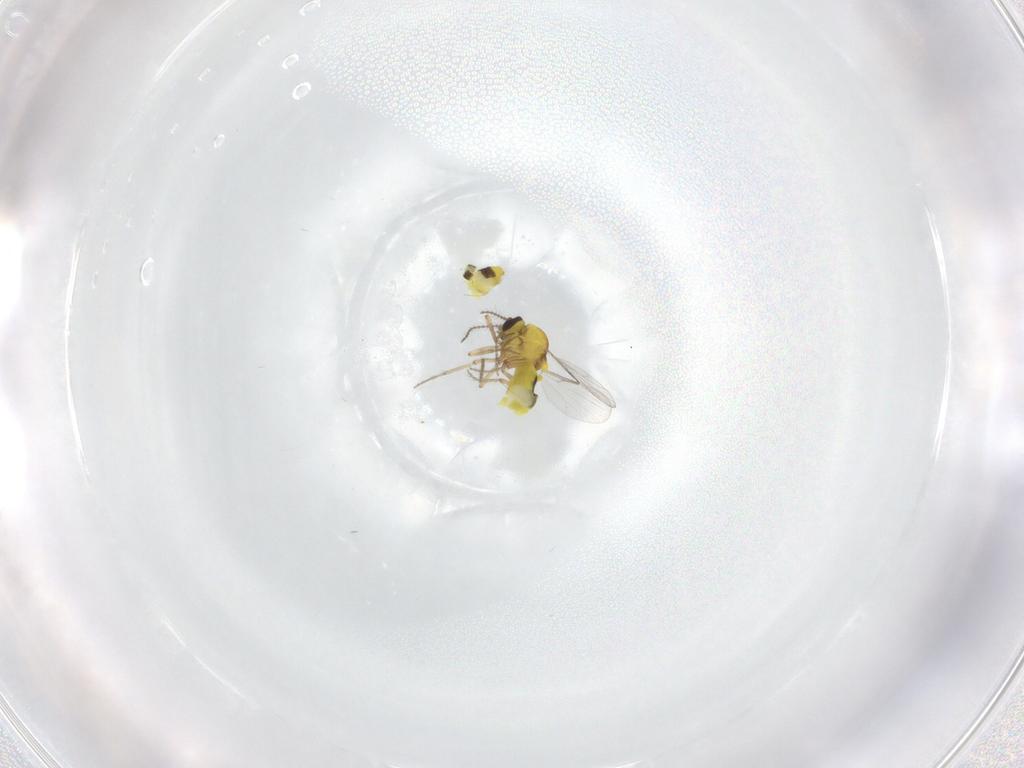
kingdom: Animalia
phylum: Arthropoda
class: Insecta
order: Diptera
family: Ceratopogonidae
